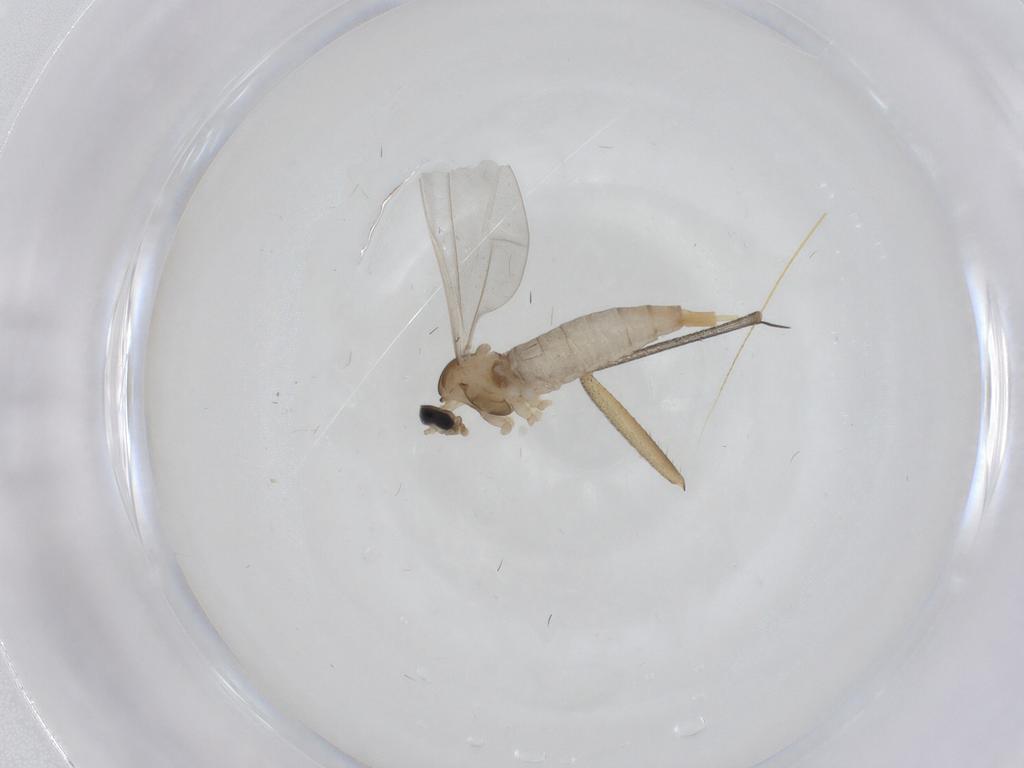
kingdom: Animalia
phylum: Arthropoda
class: Insecta
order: Diptera
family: Cecidomyiidae
